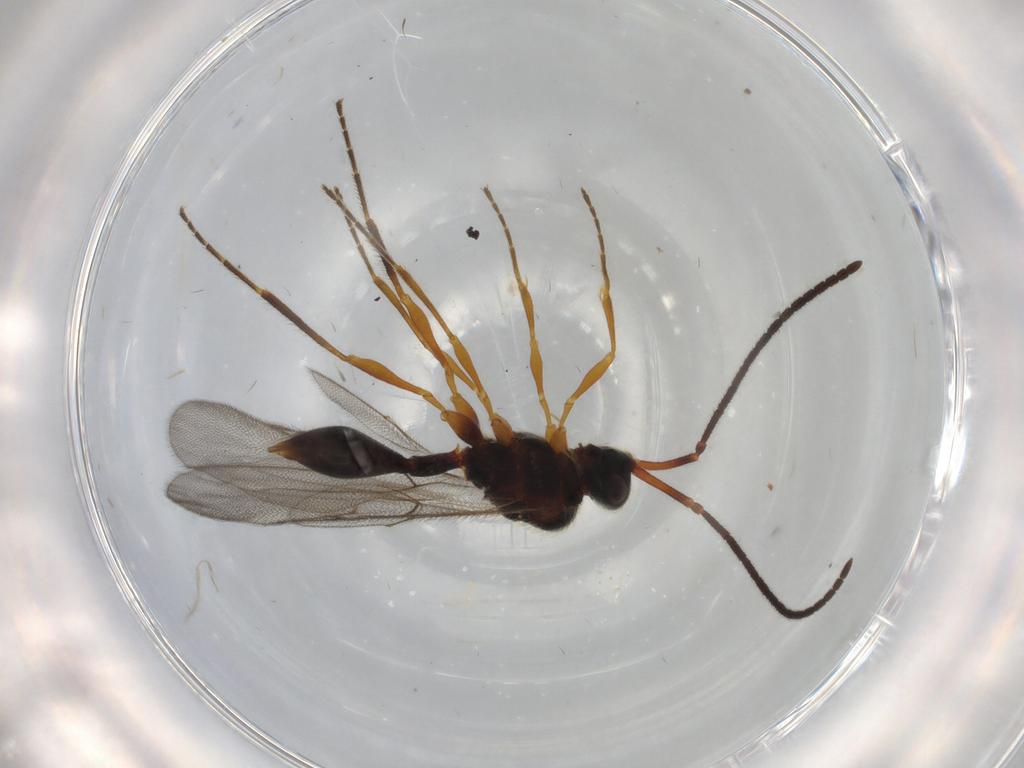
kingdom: Animalia
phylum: Arthropoda
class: Insecta
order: Hymenoptera
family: Diapriidae
